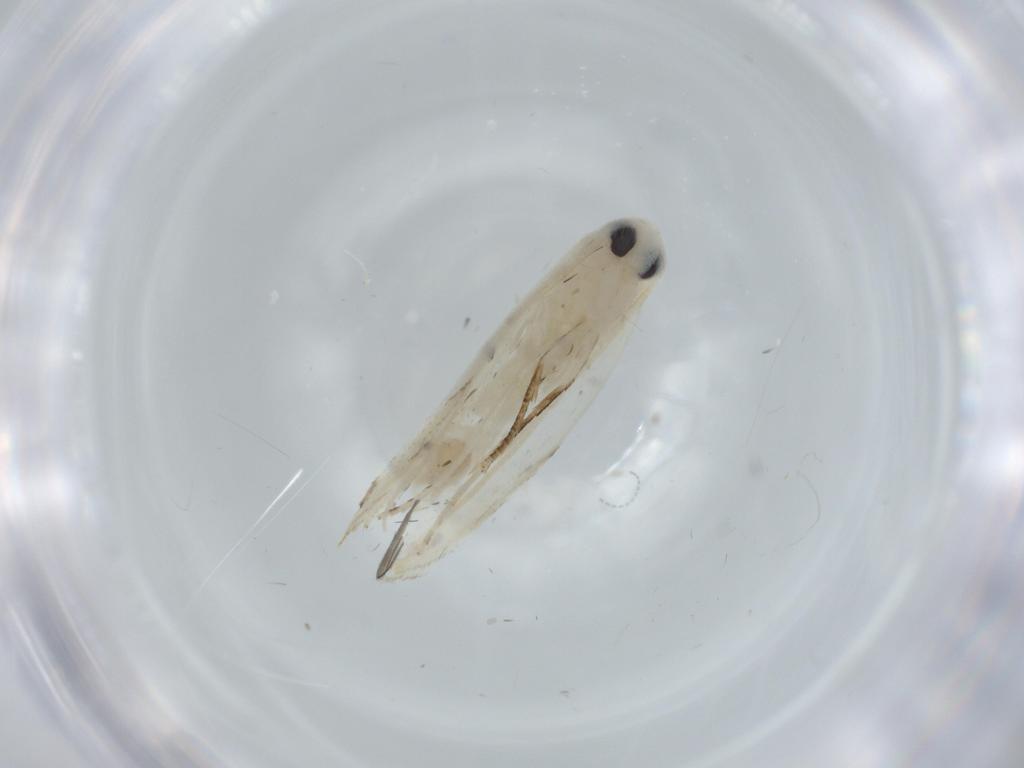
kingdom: Animalia
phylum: Arthropoda
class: Insecta
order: Lepidoptera
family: Lyonetiidae
